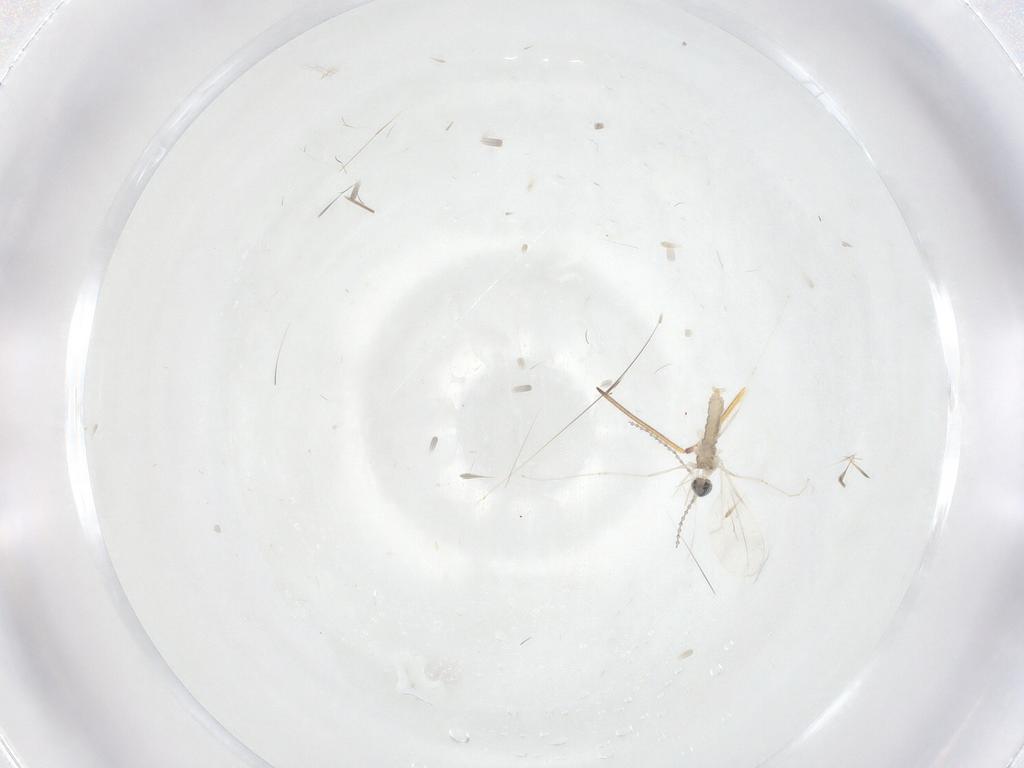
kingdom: Animalia
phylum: Arthropoda
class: Insecta
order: Diptera
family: Cecidomyiidae
